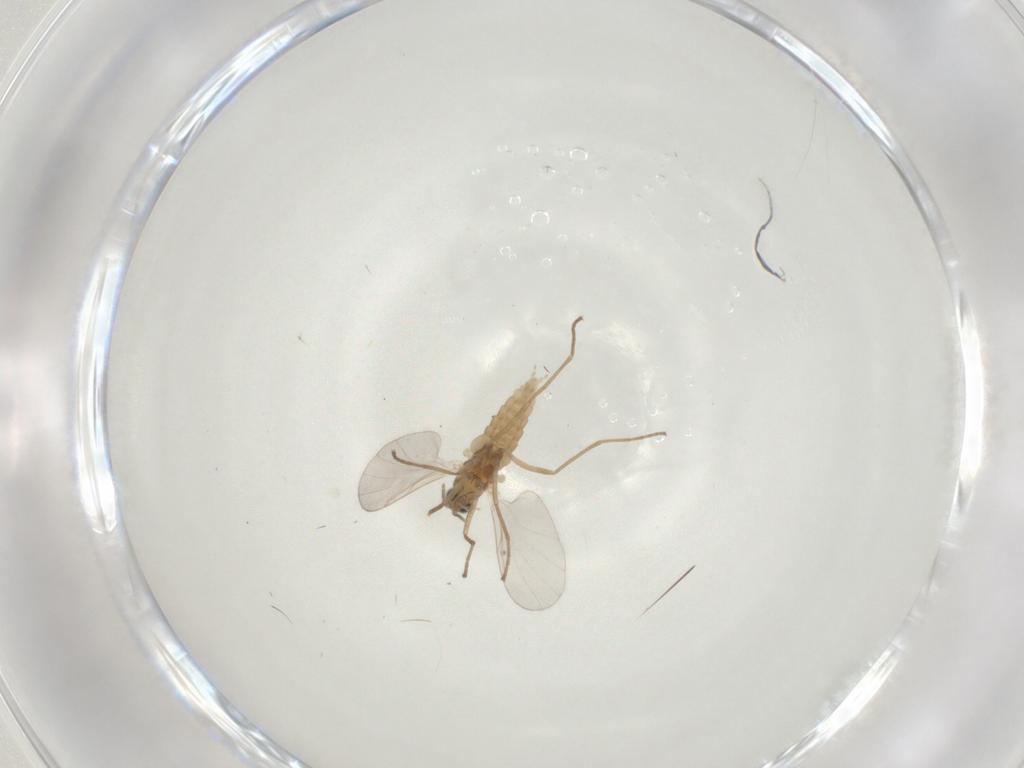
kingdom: Animalia
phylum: Arthropoda
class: Insecta
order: Diptera
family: Cecidomyiidae
